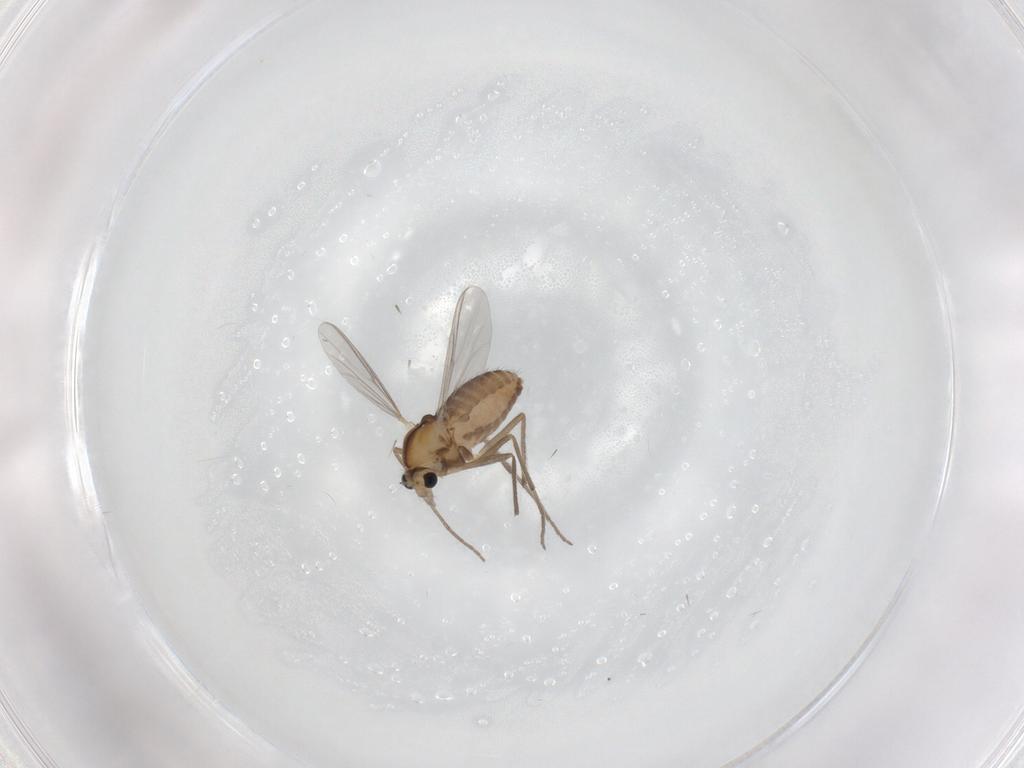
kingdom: Animalia
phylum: Arthropoda
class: Insecta
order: Diptera
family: Chironomidae
